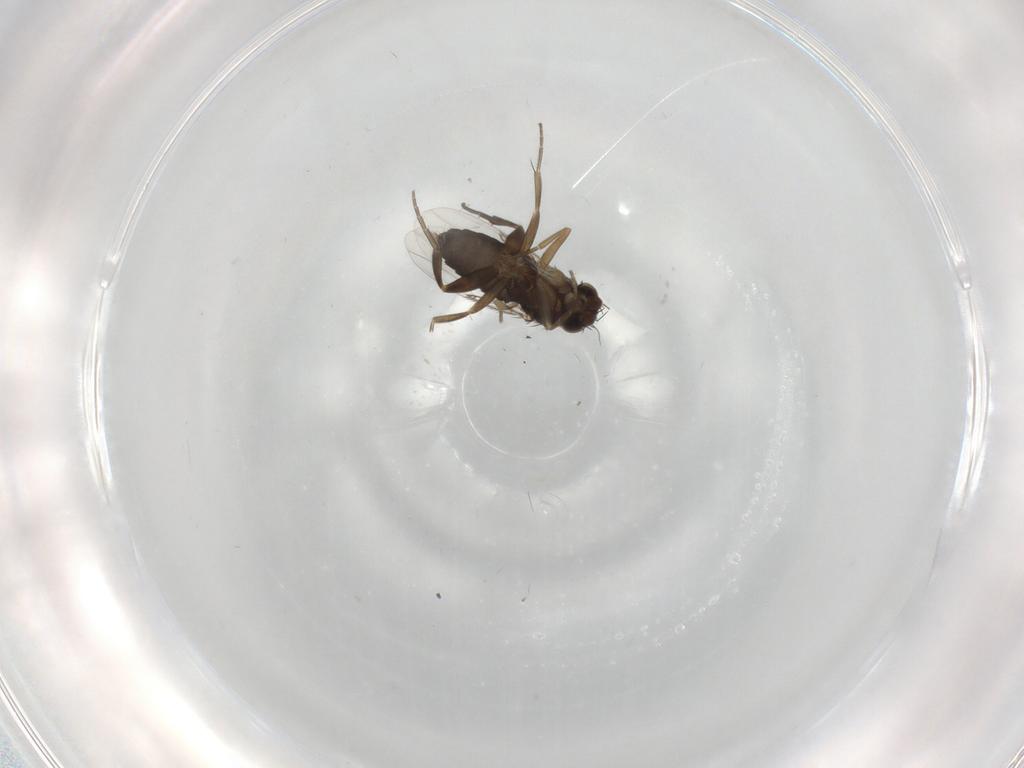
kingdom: Animalia
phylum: Arthropoda
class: Insecta
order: Diptera
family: Phoridae
